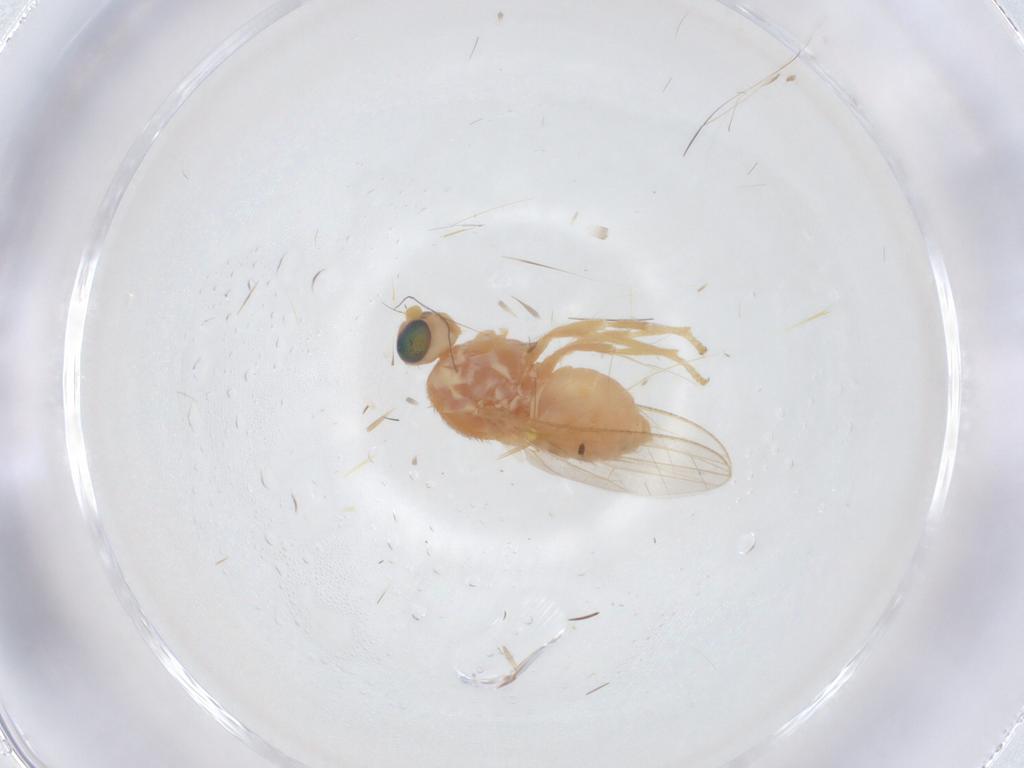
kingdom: Animalia
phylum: Arthropoda
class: Insecta
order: Diptera
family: Chyromyidae
